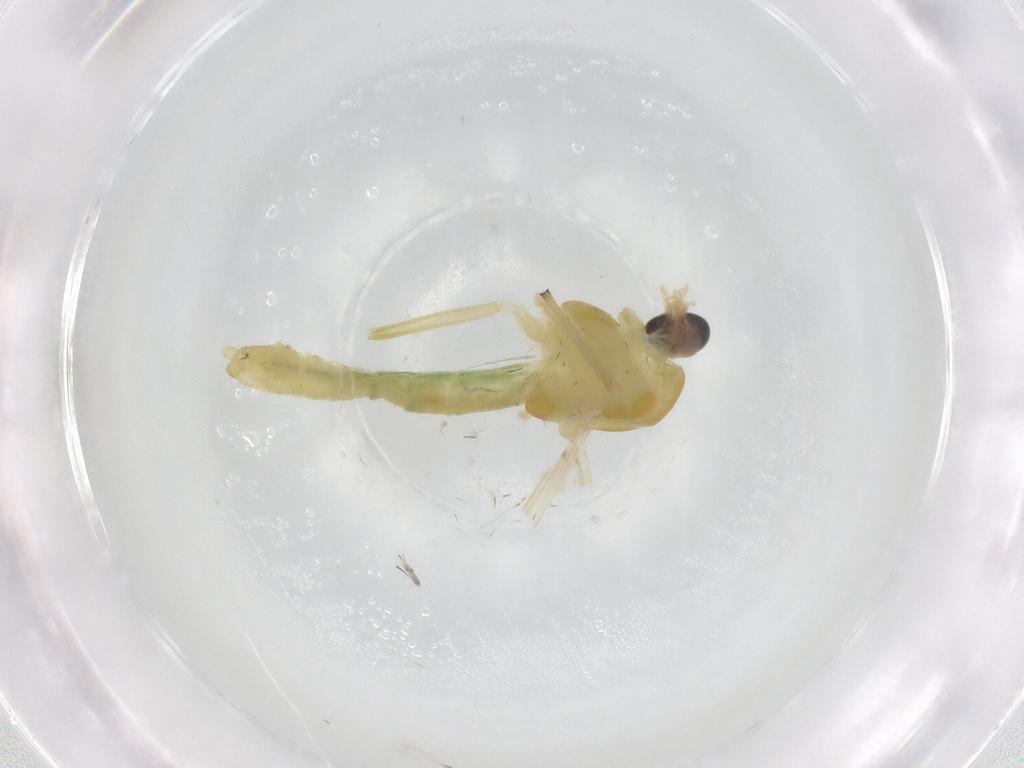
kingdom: Animalia
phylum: Arthropoda
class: Insecta
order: Diptera
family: Chironomidae
